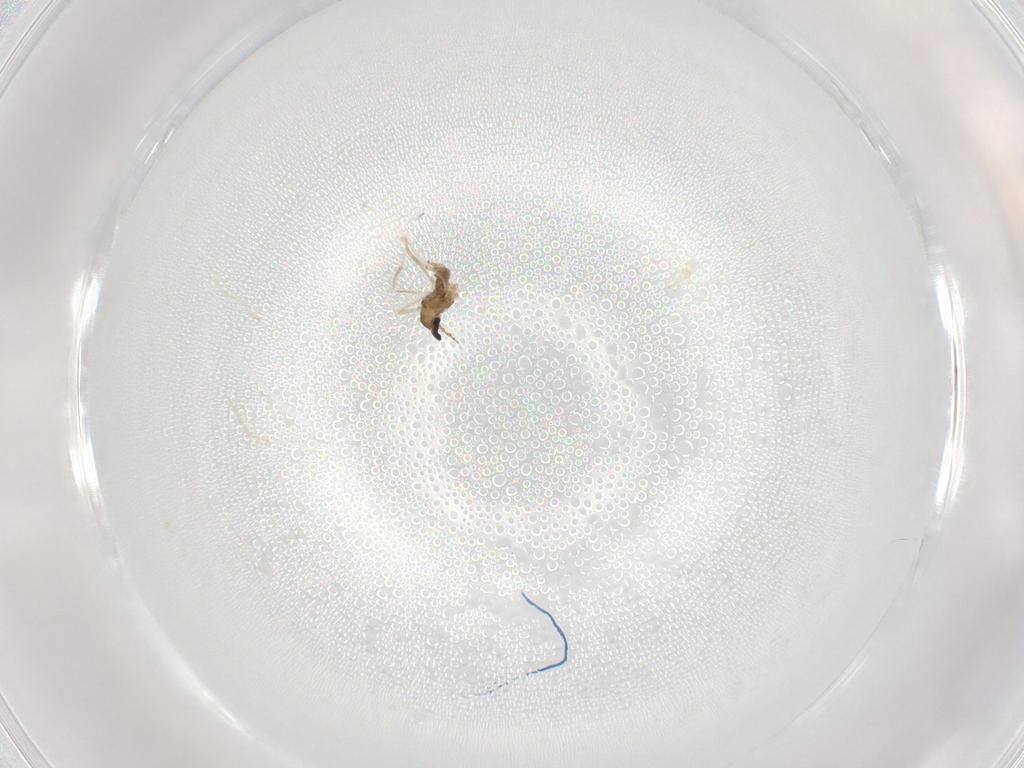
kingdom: Animalia
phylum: Arthropoda
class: Insecta
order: Diptera
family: Cecidomyiidae
